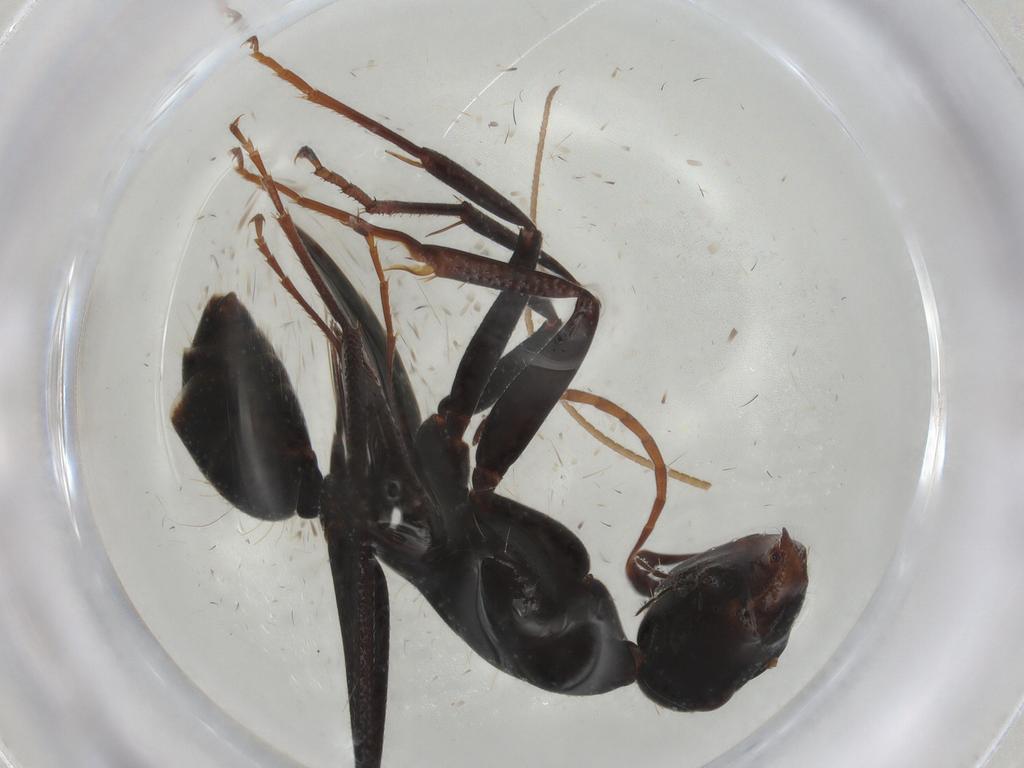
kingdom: Animalia
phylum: Arthropoda
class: Insecta
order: Hymenoptera
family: Formicidae
